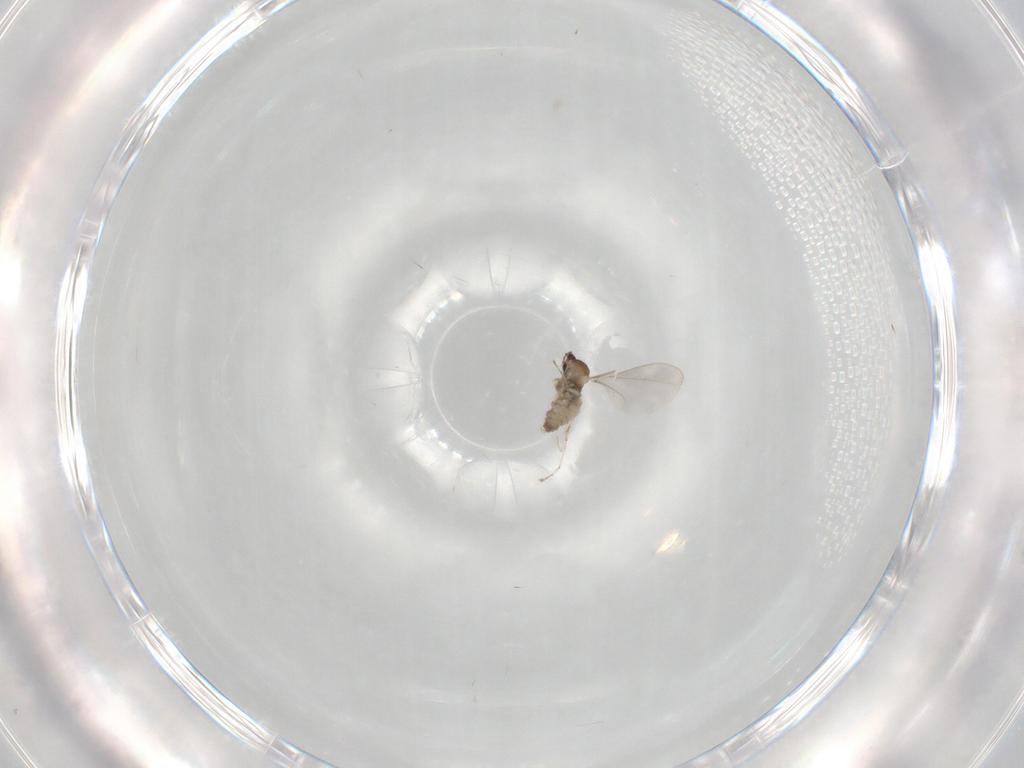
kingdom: Animalia
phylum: Arthropoda
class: Insecta
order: Diptera
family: Cecidomyiidae
